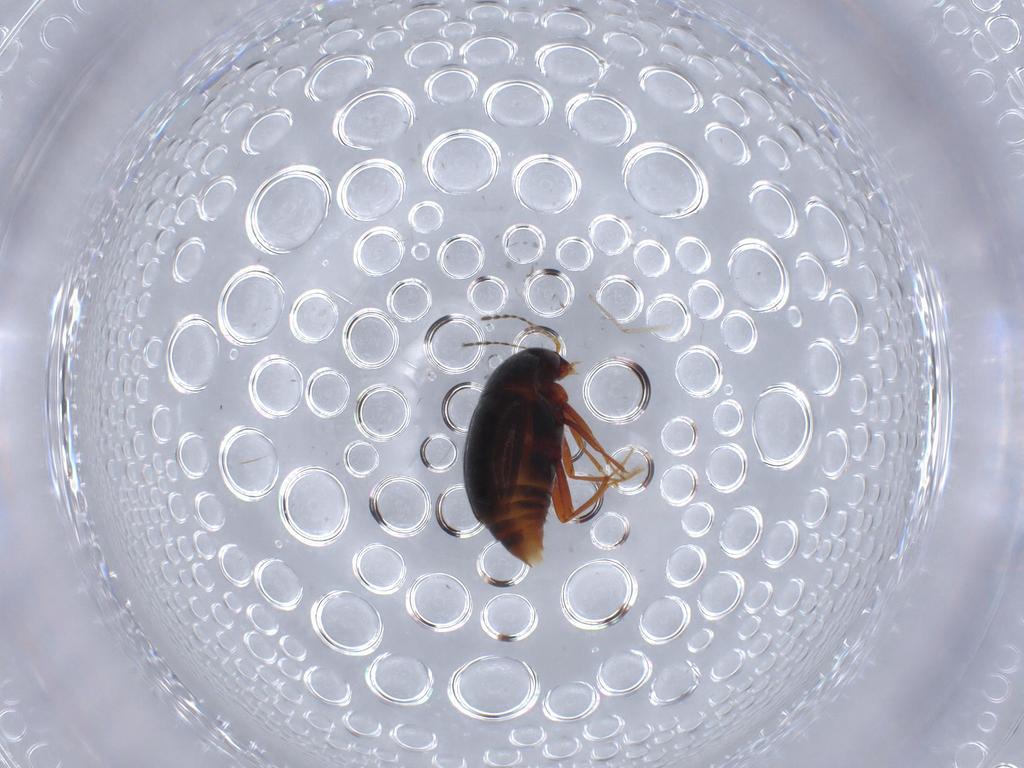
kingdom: Animalia
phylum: Arthropoda
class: Insecta
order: Coleoptera
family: Staphylinidae
